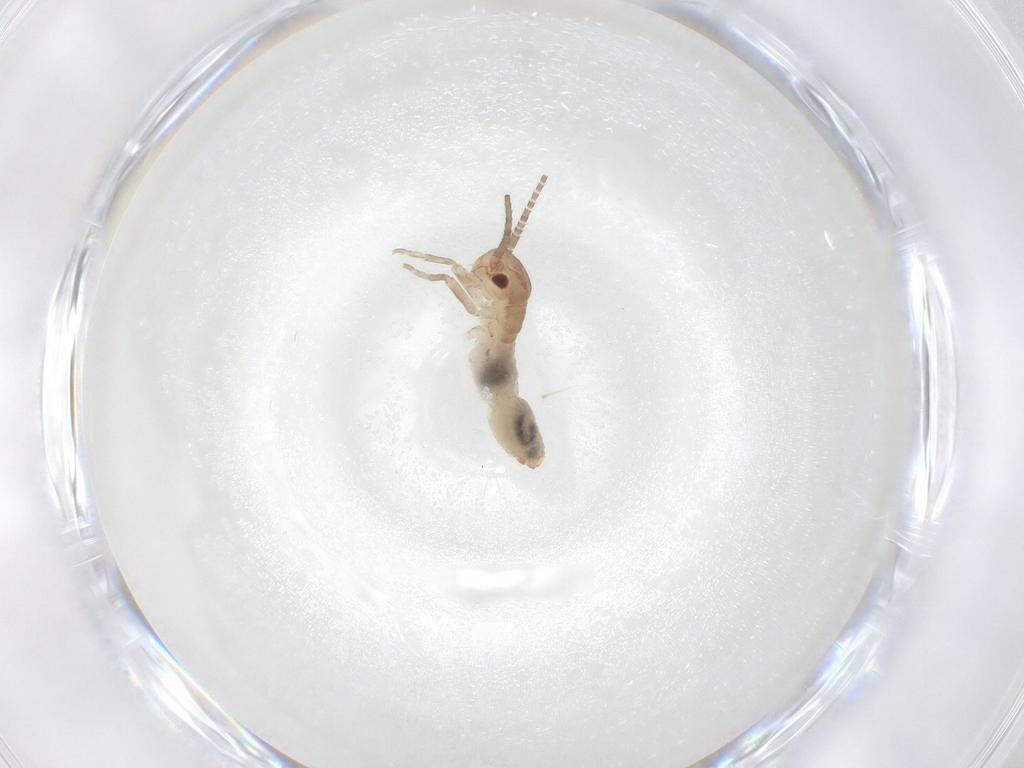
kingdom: Animalia
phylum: Arthropoda
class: Insecta
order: Orthoptera
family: Mogoplistidae
